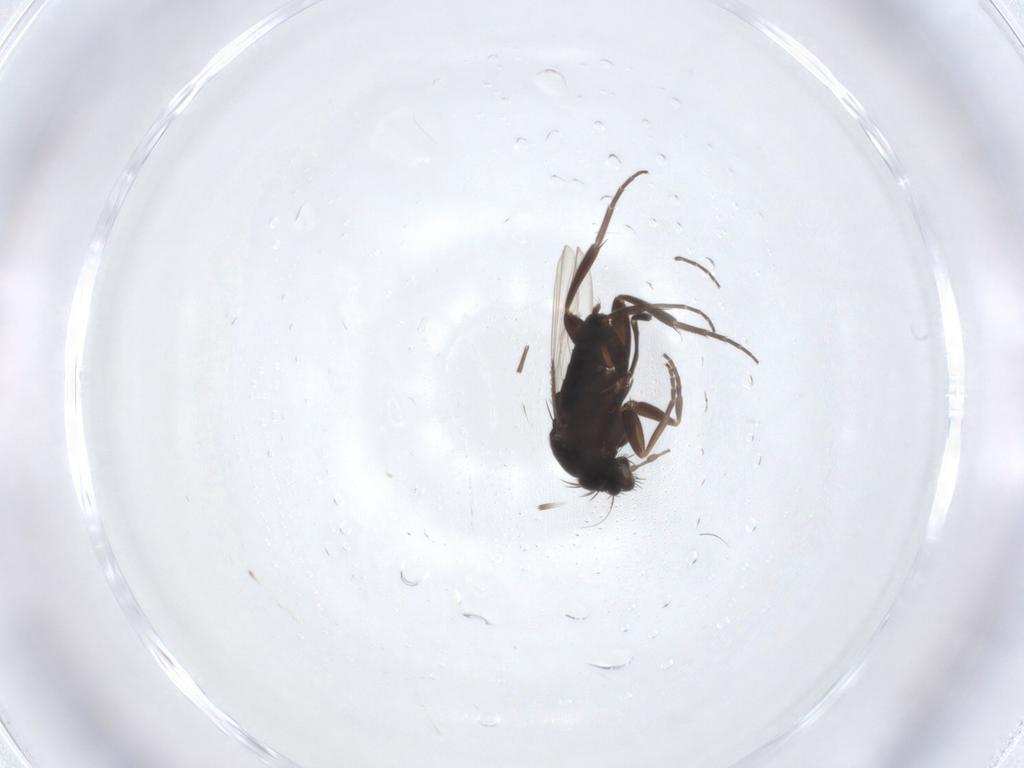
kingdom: Animalia
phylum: Arthropoda
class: Insecta
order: Diptera
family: Phoridae
